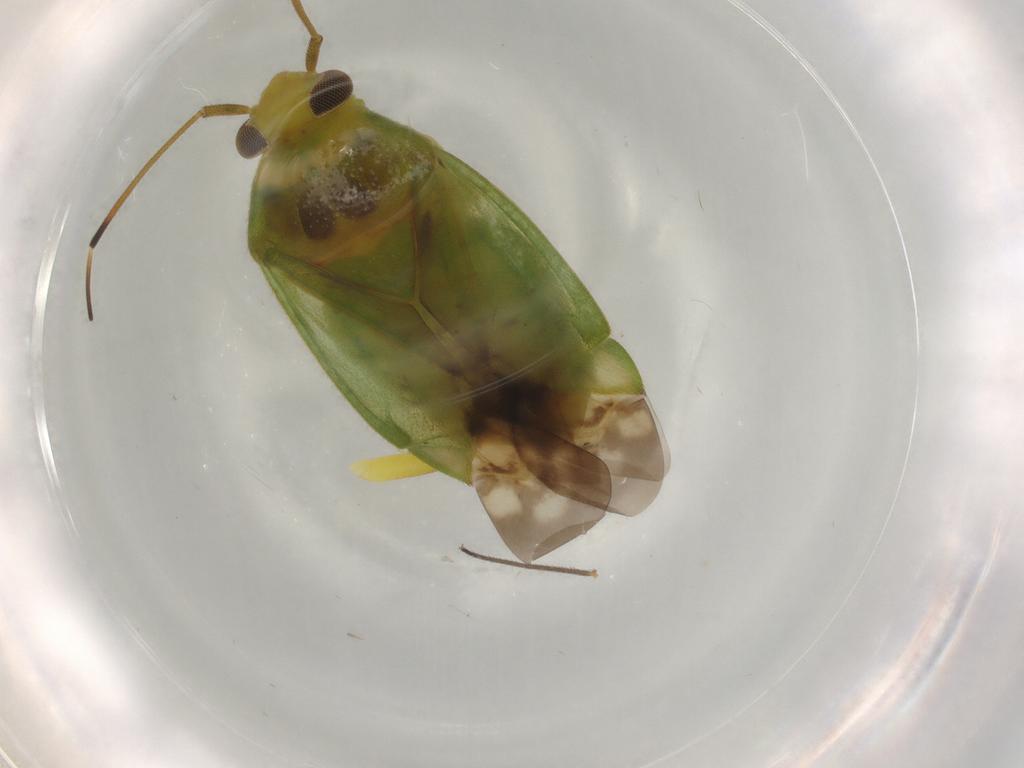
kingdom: Animalia
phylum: Arthropoda
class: Insecta
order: Hemiptera
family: Miridae
